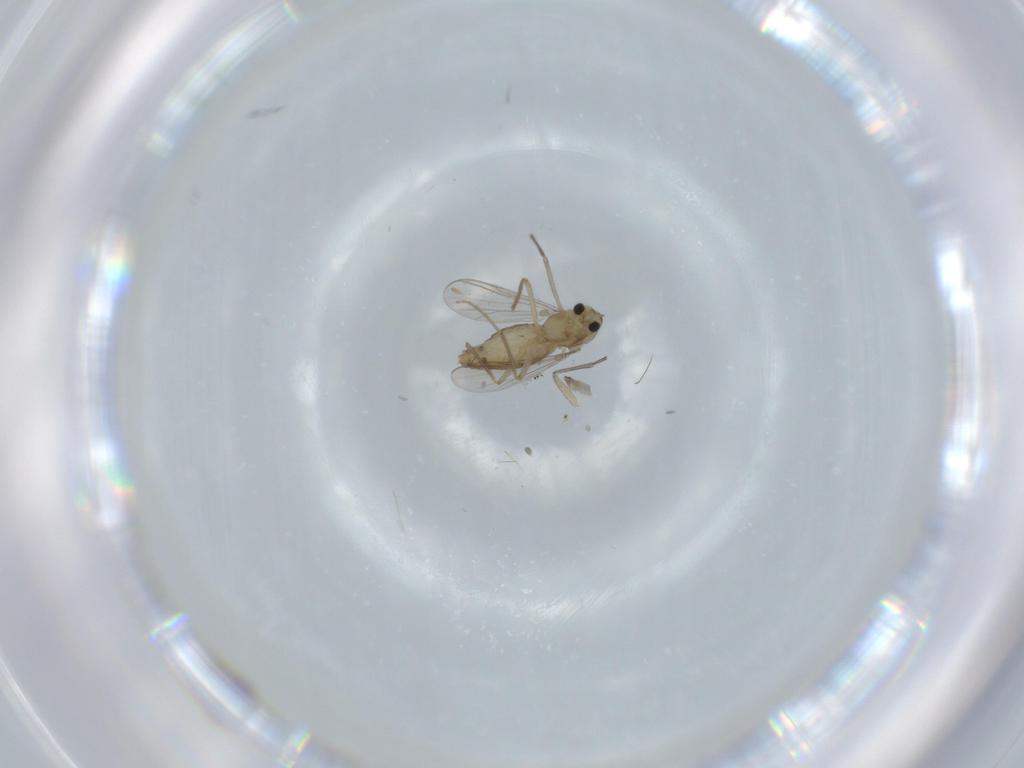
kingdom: Animalia
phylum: Arthropoda
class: Insecta
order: Diptera
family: Chironomidae
